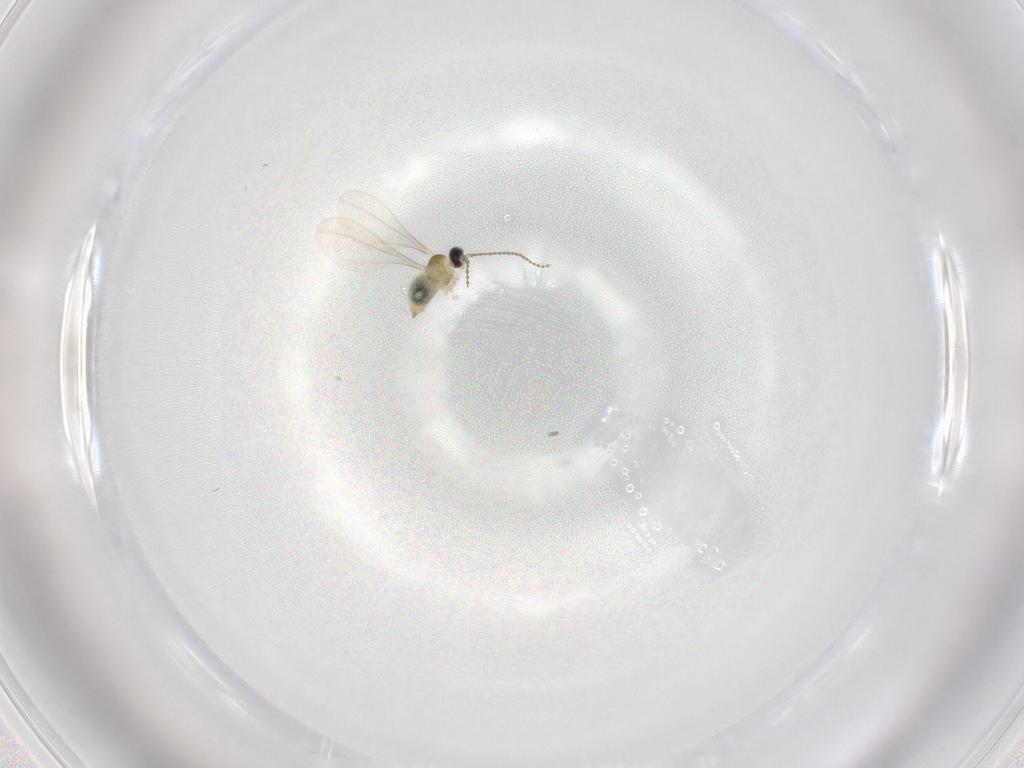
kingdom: Animalia
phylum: Arthropoda
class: Insecta
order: Diptera
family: Cecidomyiidae
